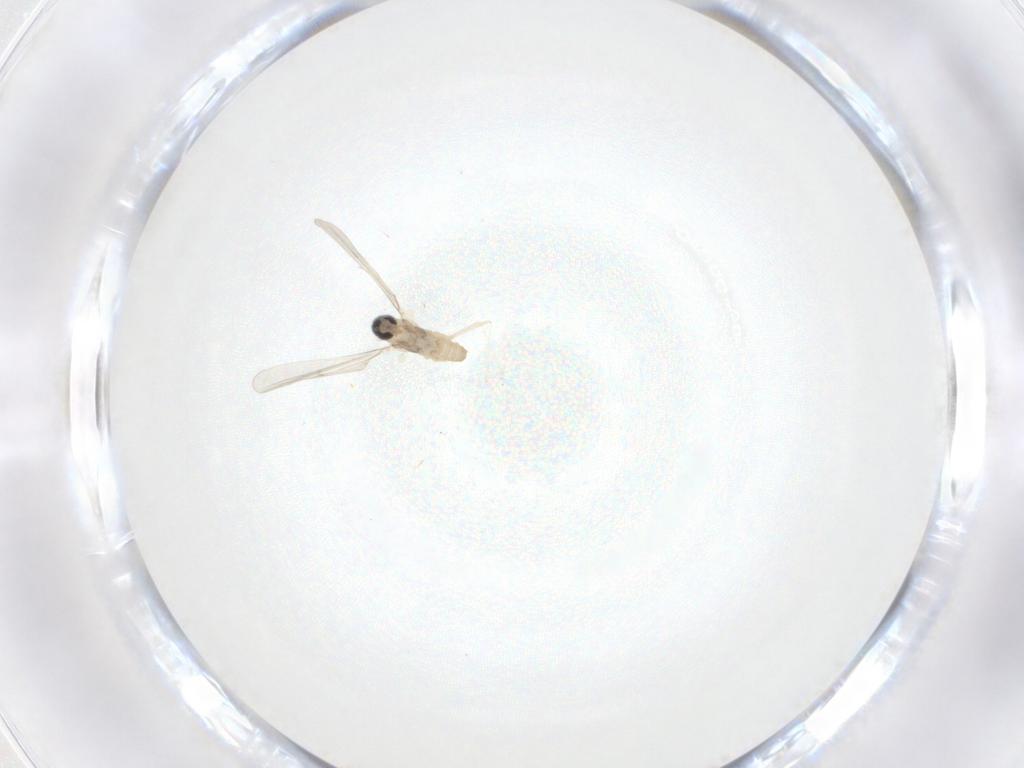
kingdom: Animalia
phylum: Arthropoda
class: Insecta
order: Diptera
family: Cecidomyiidae
